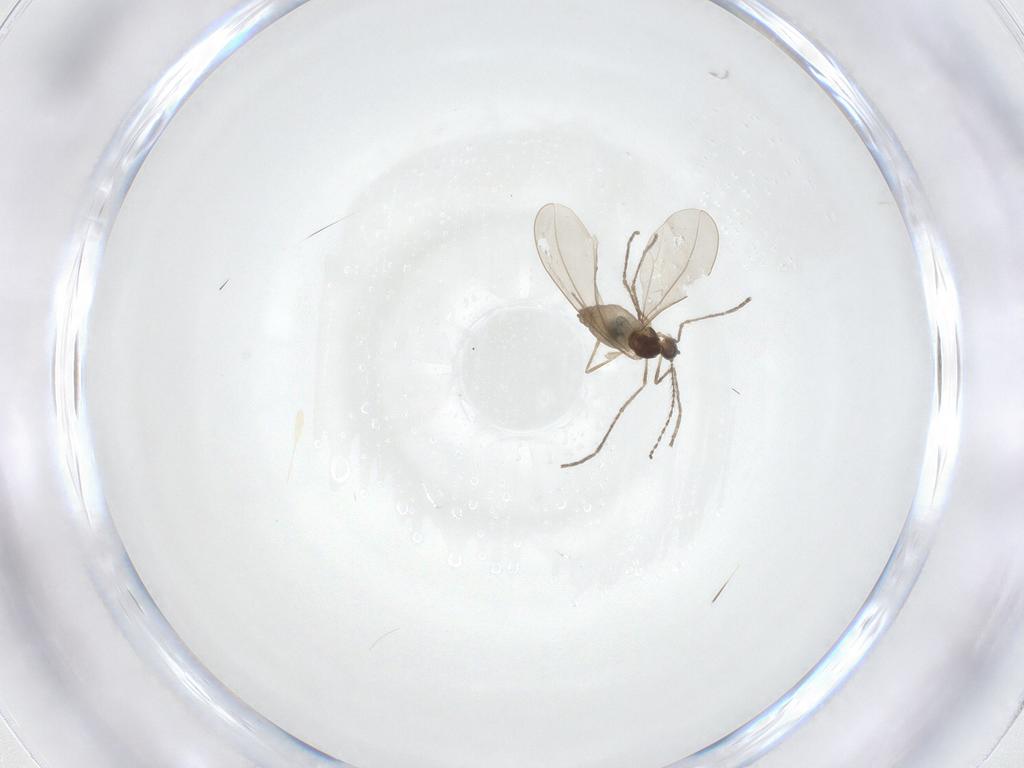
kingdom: Animalia
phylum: Arthropoda
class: Insecta
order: Diptera
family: Cecidomyiidae
